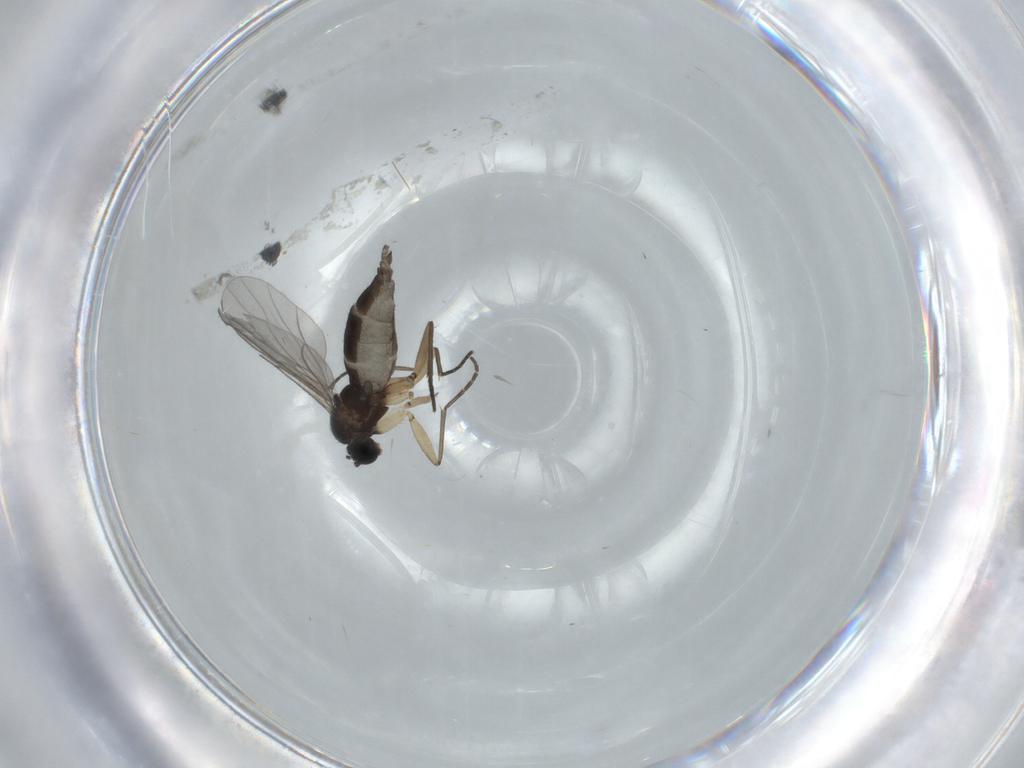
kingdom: Animalia
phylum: Arthropoda
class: Insecta
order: Diptera
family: Sciaridae
